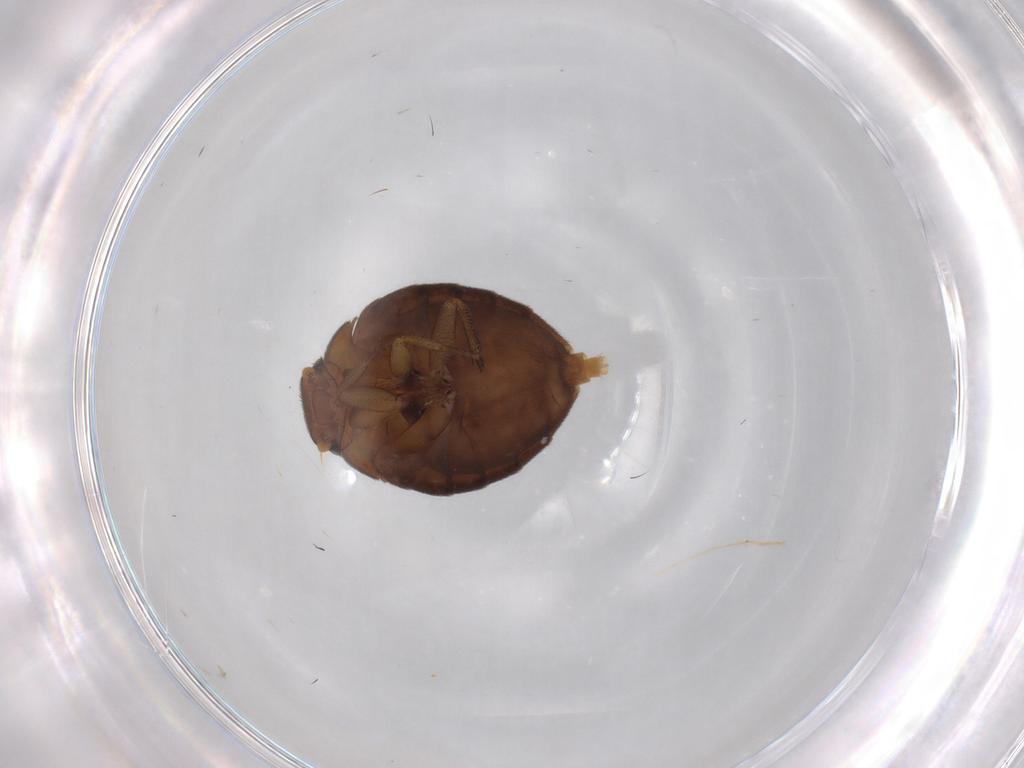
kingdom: Animalia
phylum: Arthropoda
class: Insecta
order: Diptera
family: Phoridae
